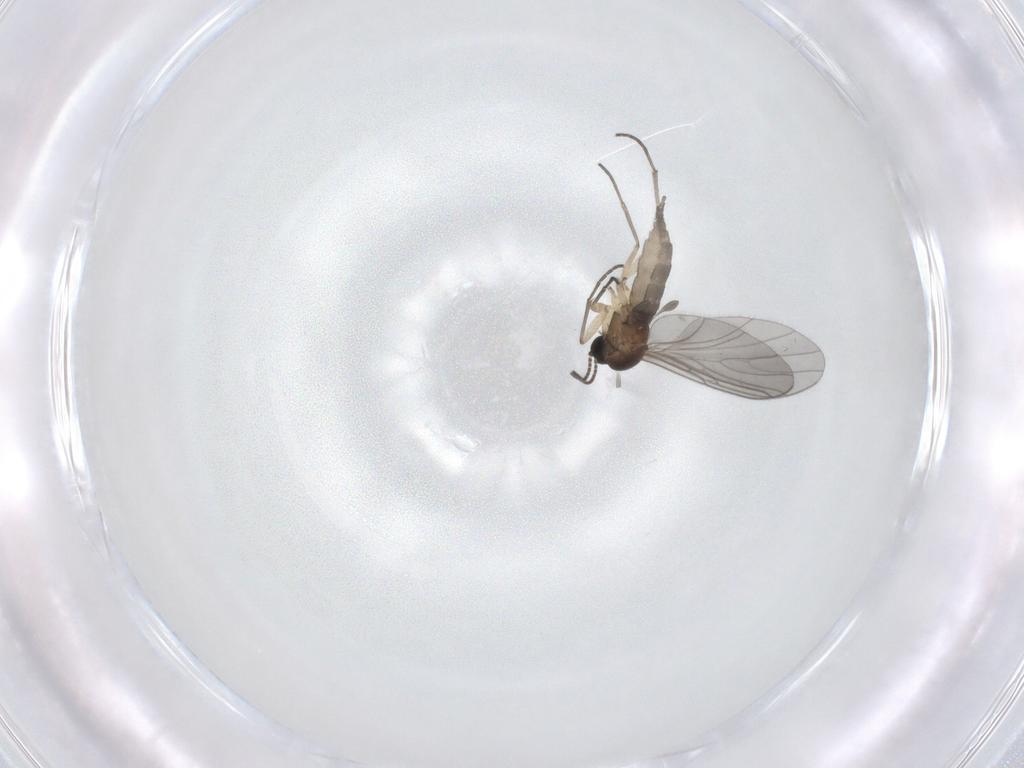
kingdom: Animalia
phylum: Arthropoda
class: Insecta
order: Diptera
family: Sciaridae
